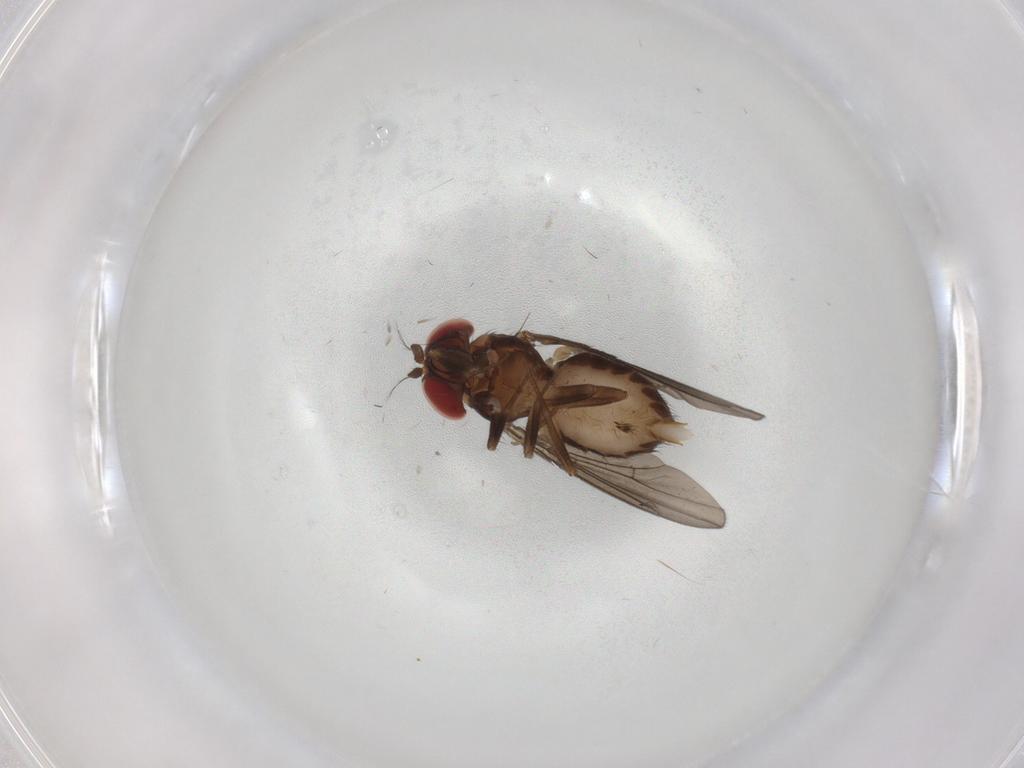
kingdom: Animalia
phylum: Arthropoda
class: Insecta
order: Diptera
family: Drosophilidae
